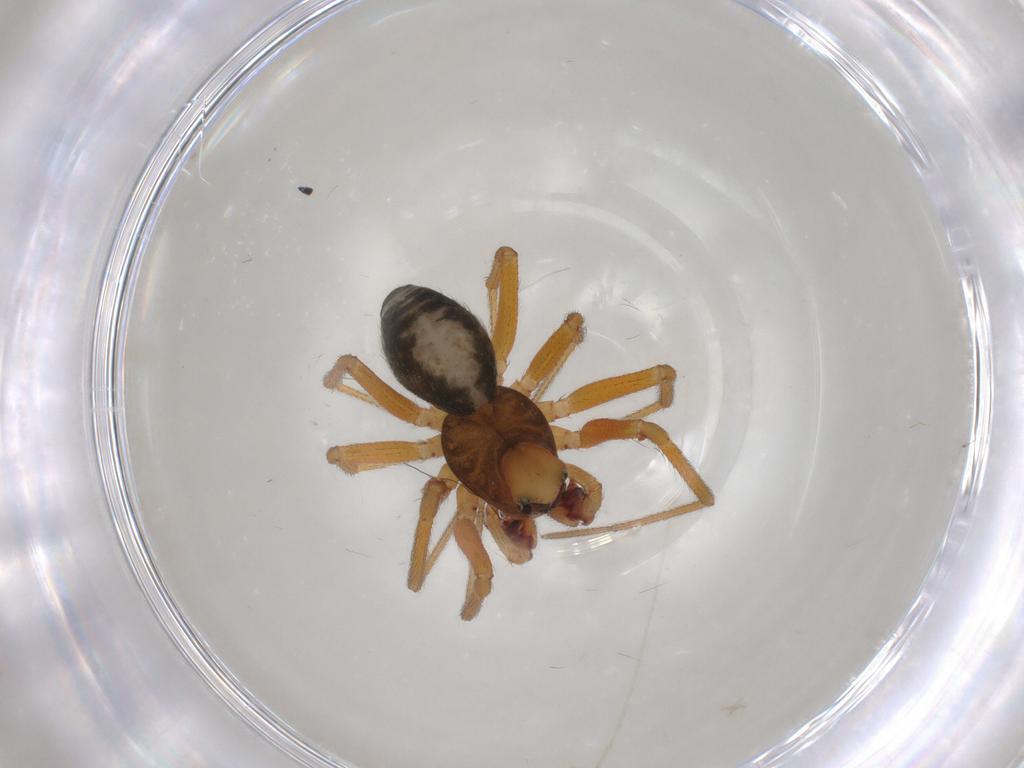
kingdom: Animalia
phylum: Arthropoda
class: Arachnida
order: Araneae
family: Linyphiidae
